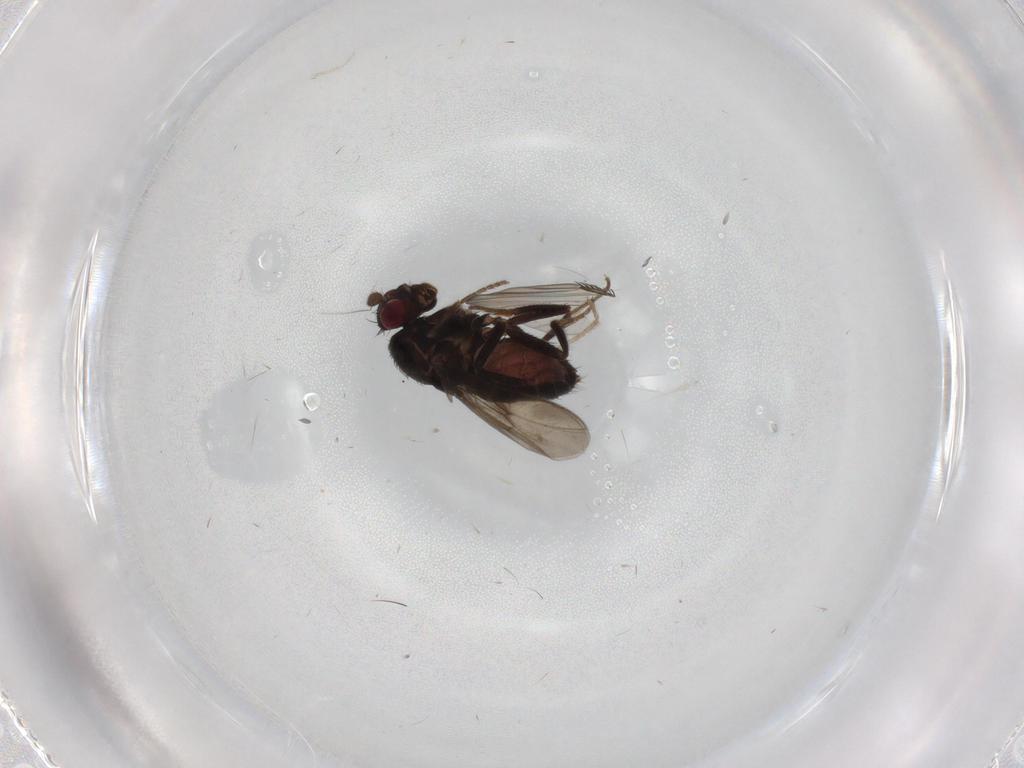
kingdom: Animalia
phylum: Arthropoda
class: Insecta
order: Diptera
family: Sphaeroceridae
